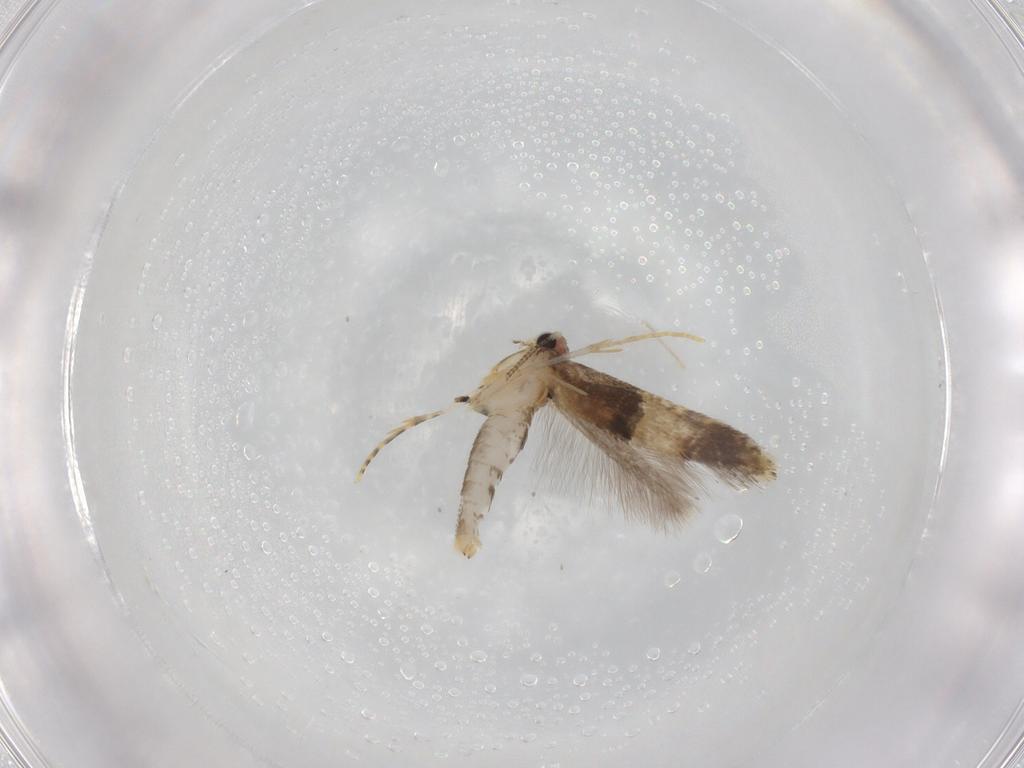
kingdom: Animalia
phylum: Arthropoda
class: Insecta
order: Lepidoptera
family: Tineidae
